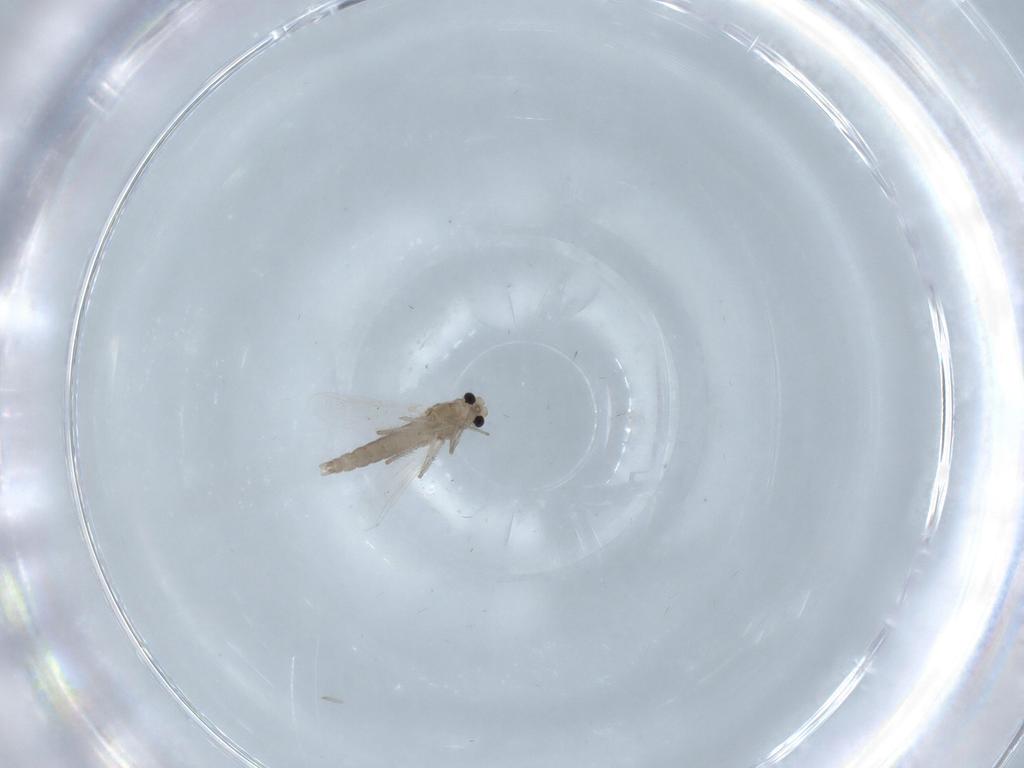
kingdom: Animalia
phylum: Arthropoda
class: Insecta
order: Diptera
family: Chironomidae
